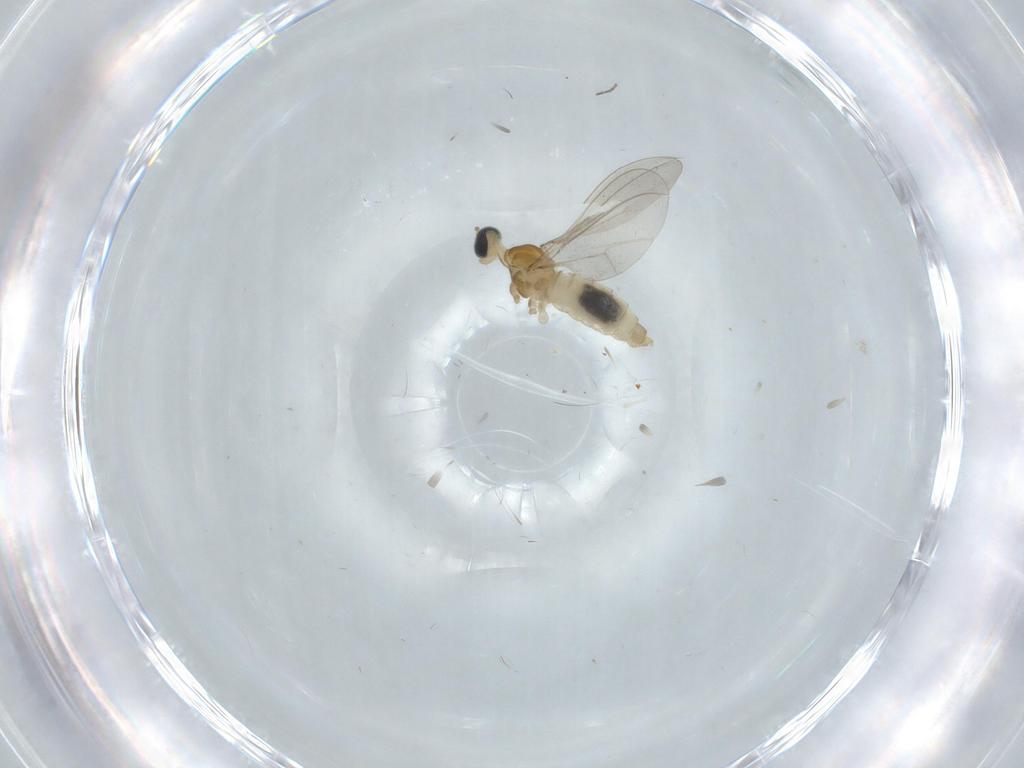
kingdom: Animalia
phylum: Arthropoda
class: Insecta
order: Diptera
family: Cecidomyiidae
